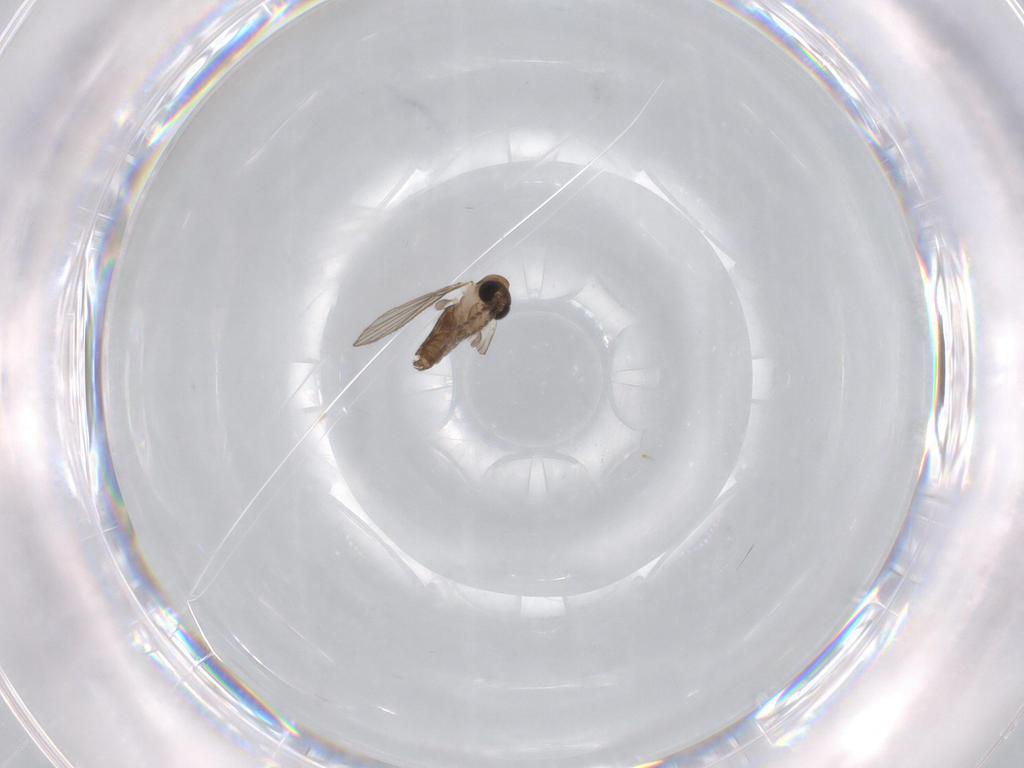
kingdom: Animalia
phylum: Arthropoda
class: Insecta
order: Diptera
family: Psychodidae
